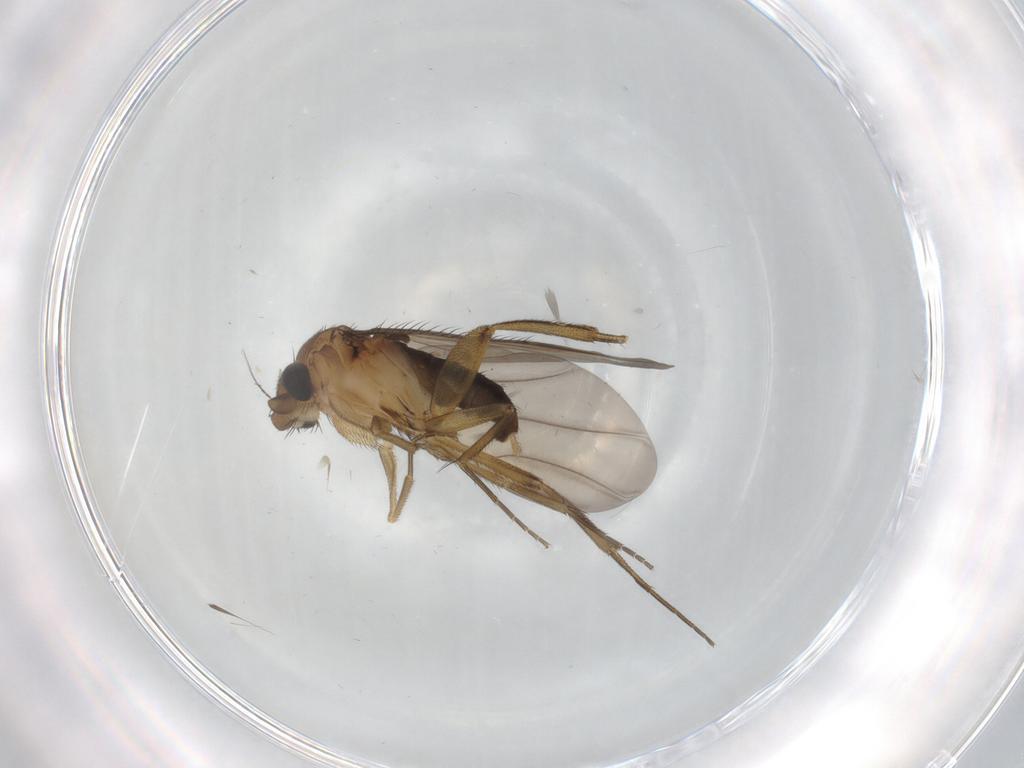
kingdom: Animalia
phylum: Arthropoda
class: Insecta
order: Diptera
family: Phoridae
